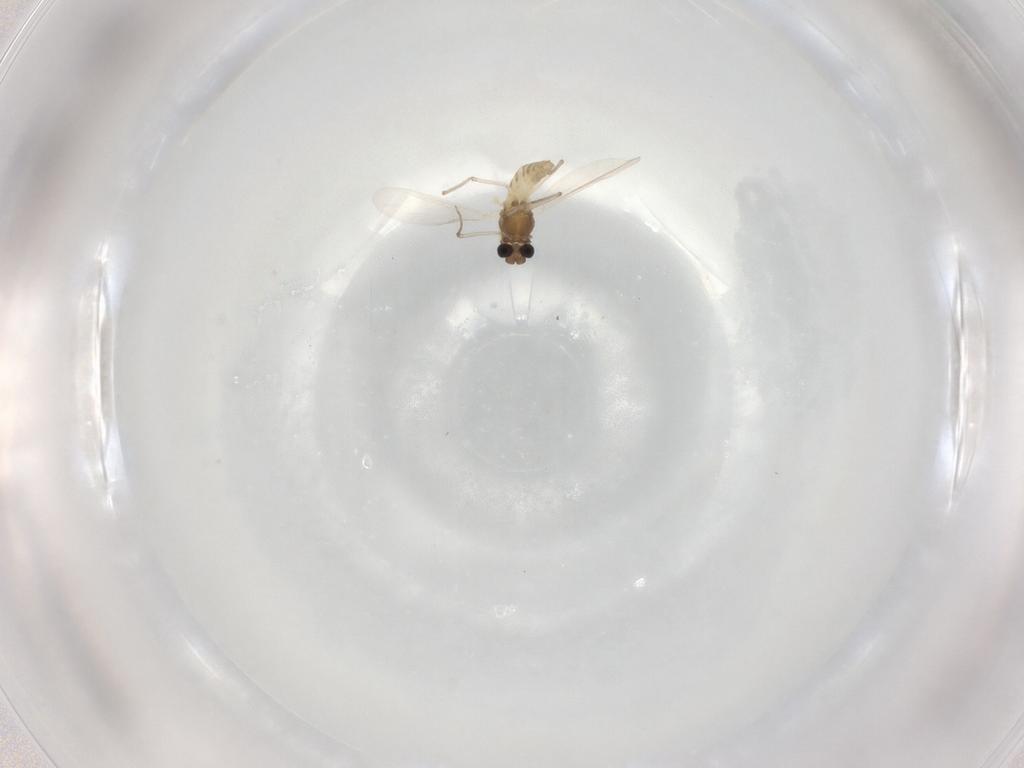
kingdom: Animalia
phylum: Arthropoda
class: Insecta
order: Diptera
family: Chironomidae
